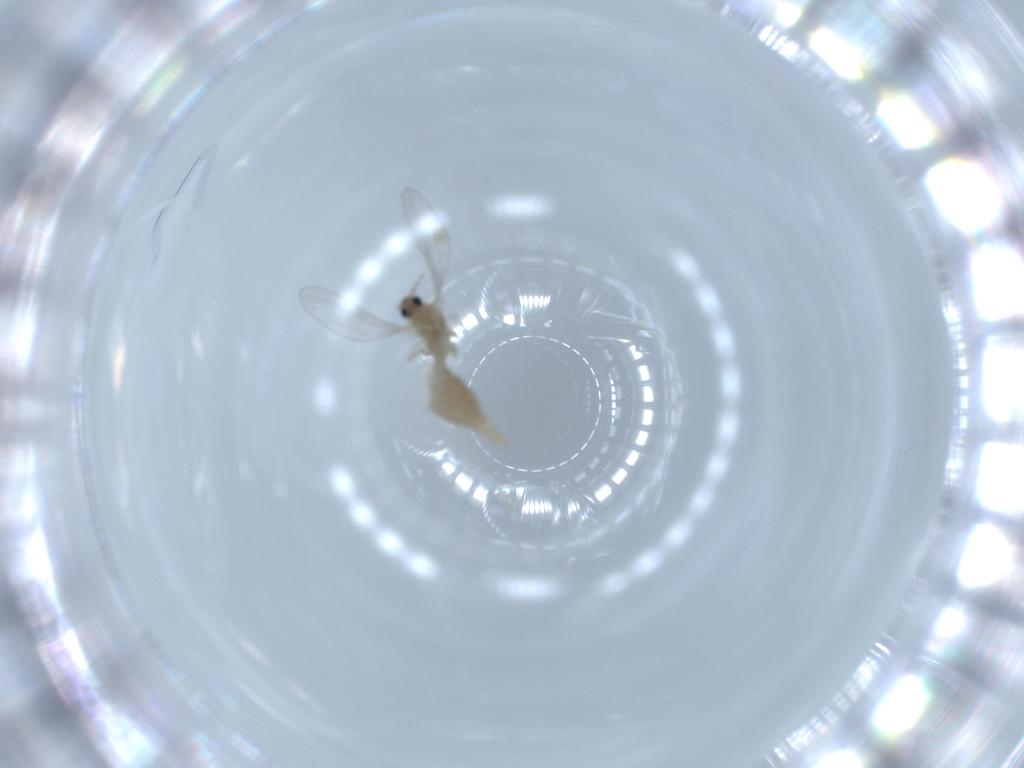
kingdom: Animalia
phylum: Arthropoda
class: Insecta
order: Diptera
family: Cecidomyiidae
